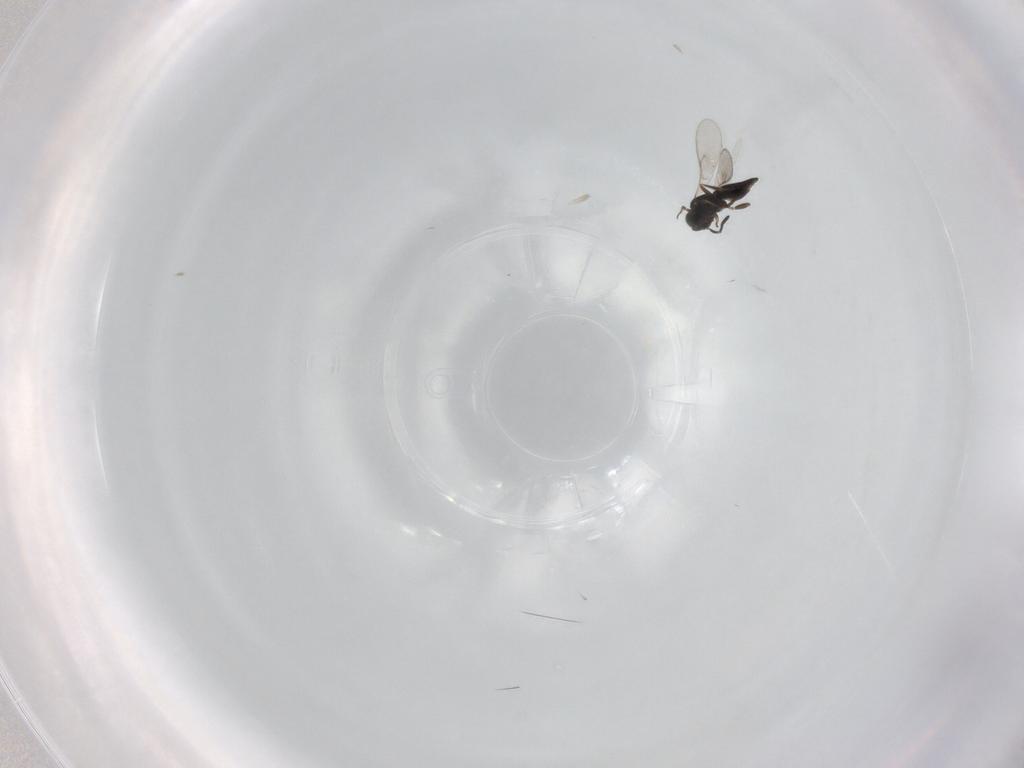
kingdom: Animalia
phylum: Arthropoda
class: Insecta
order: Hymenoptera
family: Scelionidae
